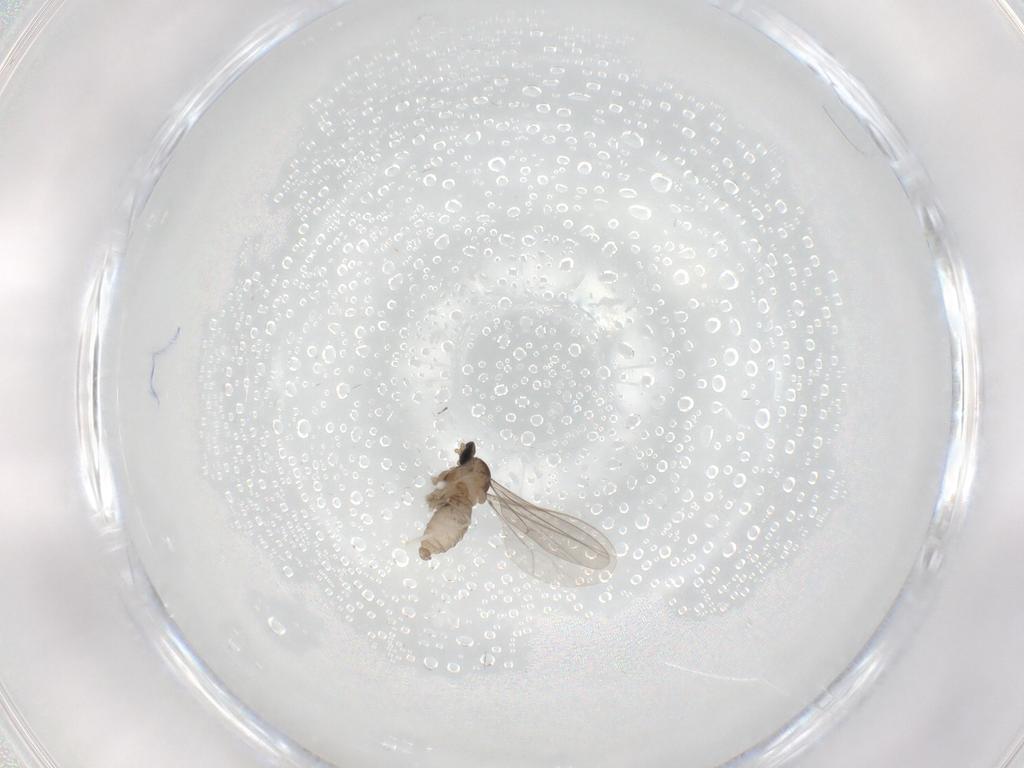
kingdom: Animalia
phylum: Arthropoda
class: Insecta
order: Diptera
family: Cecidomyiidae
